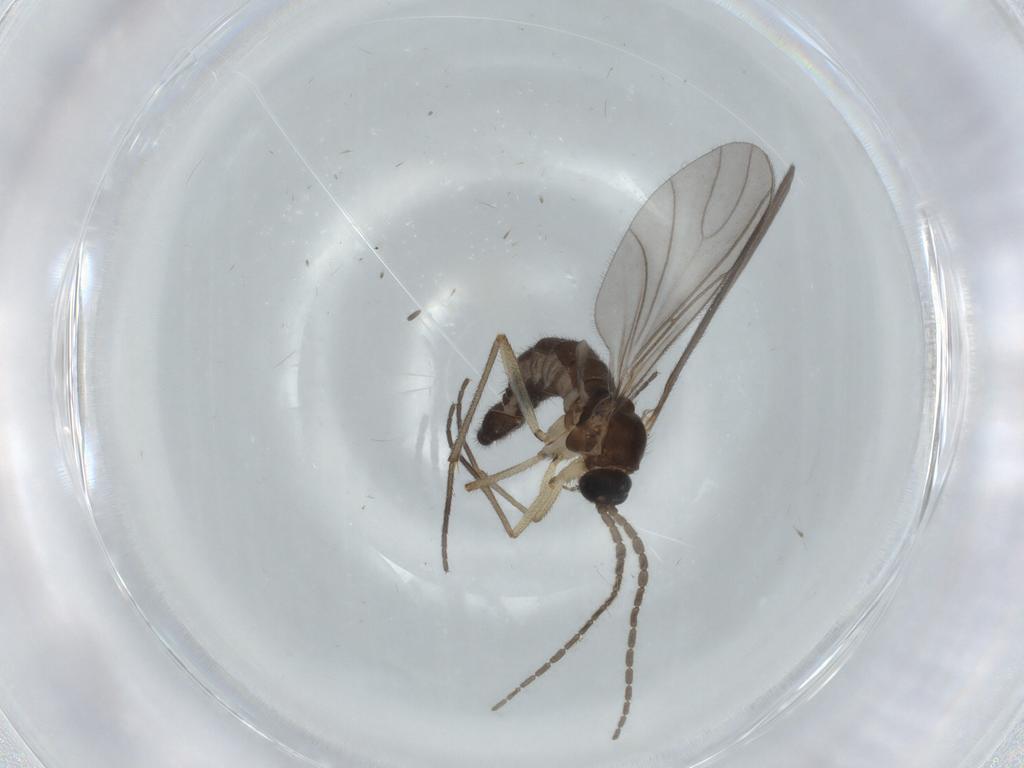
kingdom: Animalia
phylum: Arthropoda
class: Insecta
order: Diptera
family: Sciaridae
